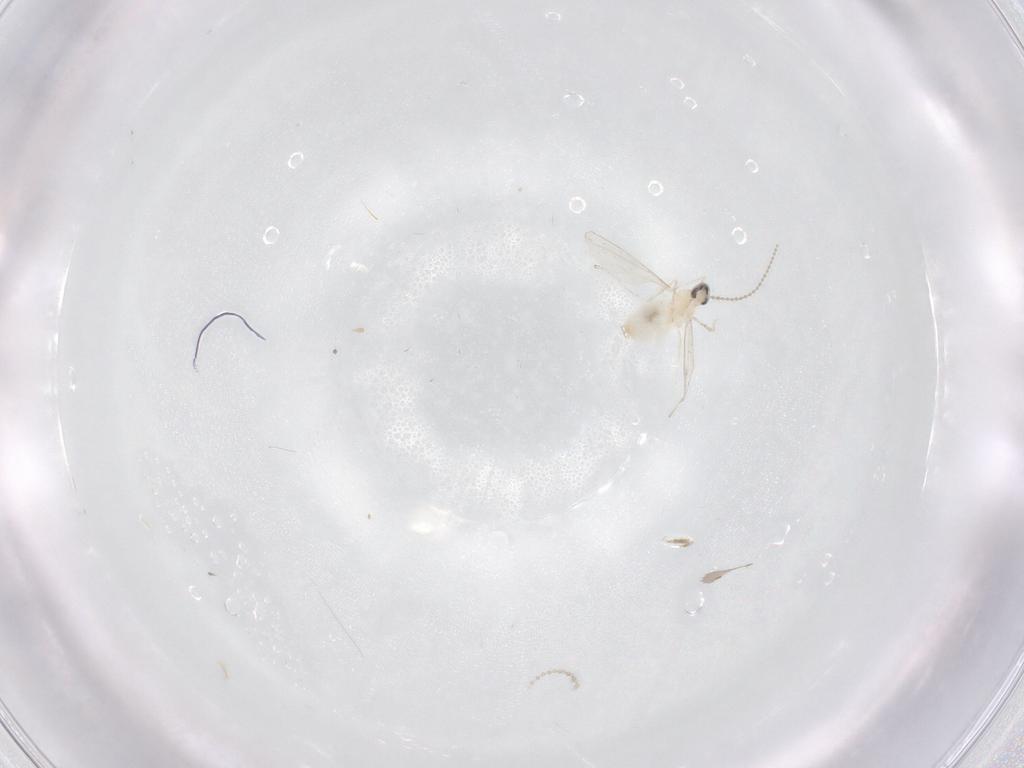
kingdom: Animalia
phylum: Arthropoda
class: Insecta
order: Diptera
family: Cecidomyiidae
